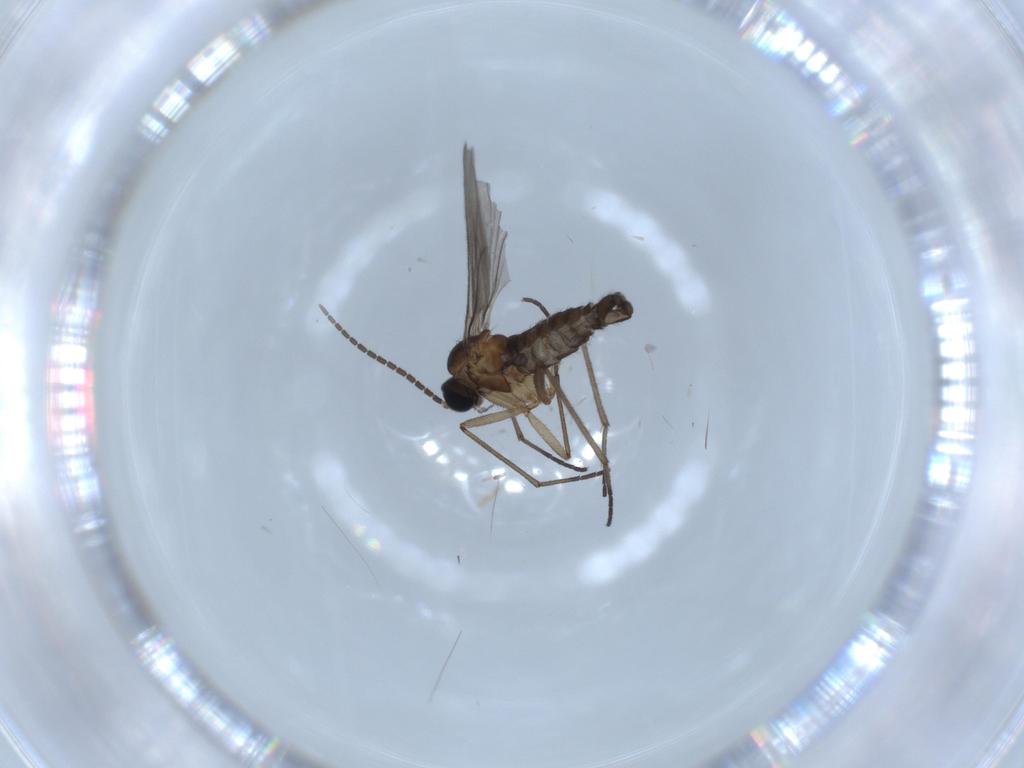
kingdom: Animalia
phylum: Arthropoda
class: Insecta
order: Diptera
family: Sciaridae
